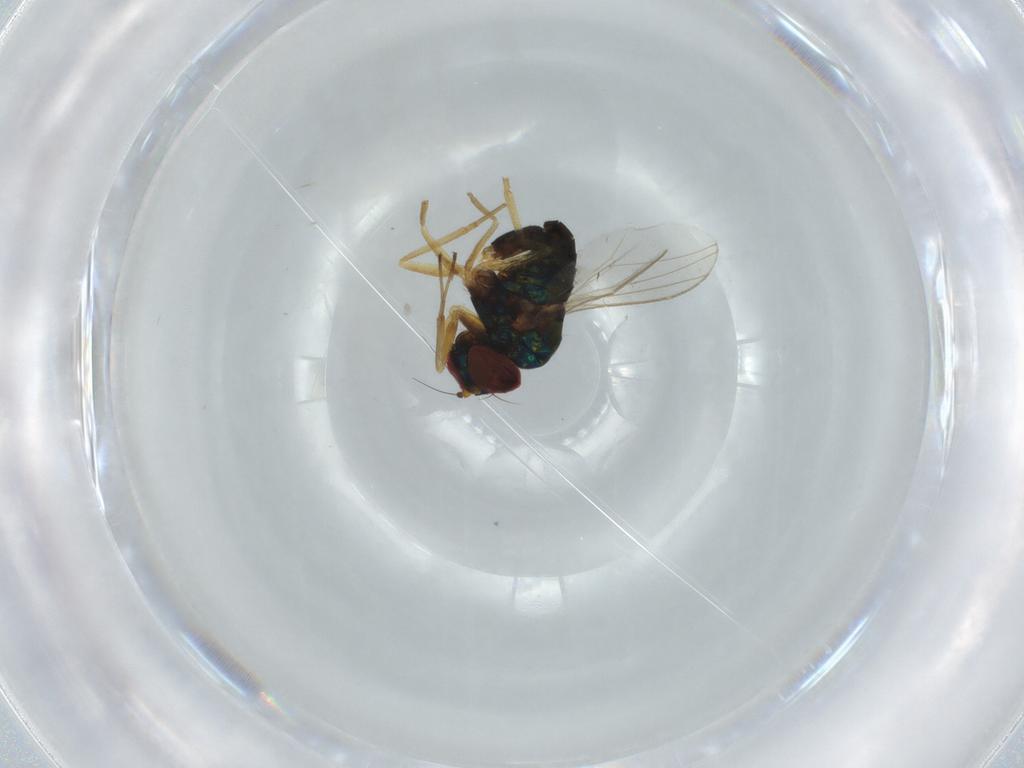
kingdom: Animalia
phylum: Arthropoda
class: Insecta
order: Diptera
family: Dolichopodidae
